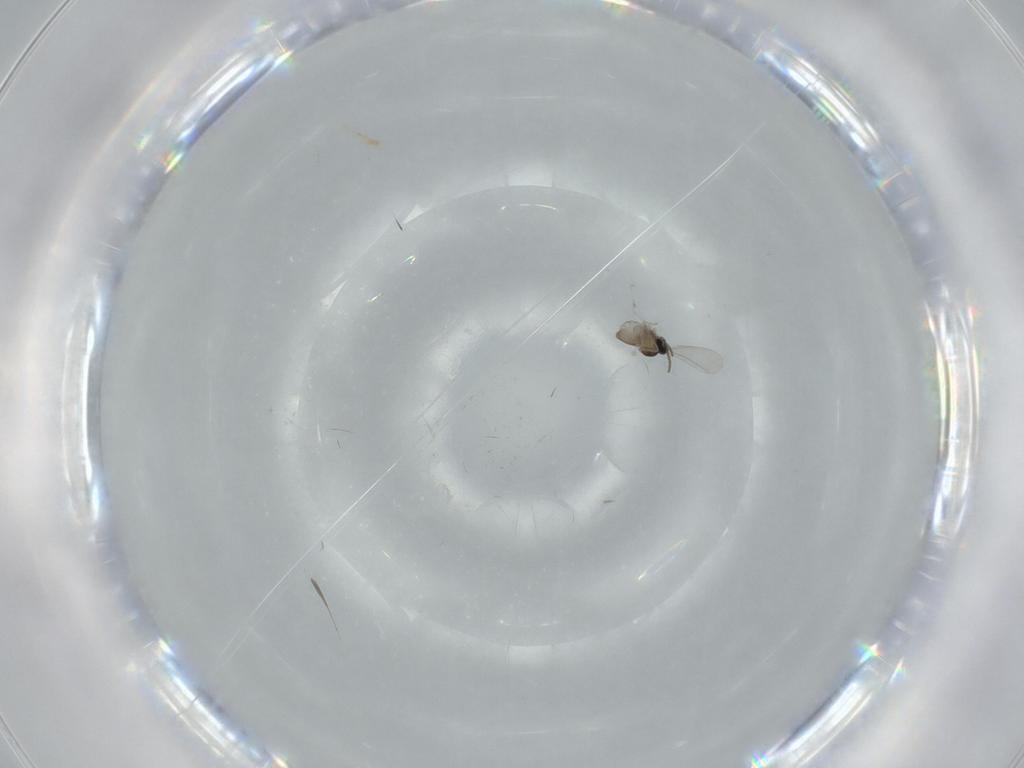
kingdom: Animalia
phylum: Arthropoda
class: Insecta
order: Diptera
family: Cecidomyiidae
